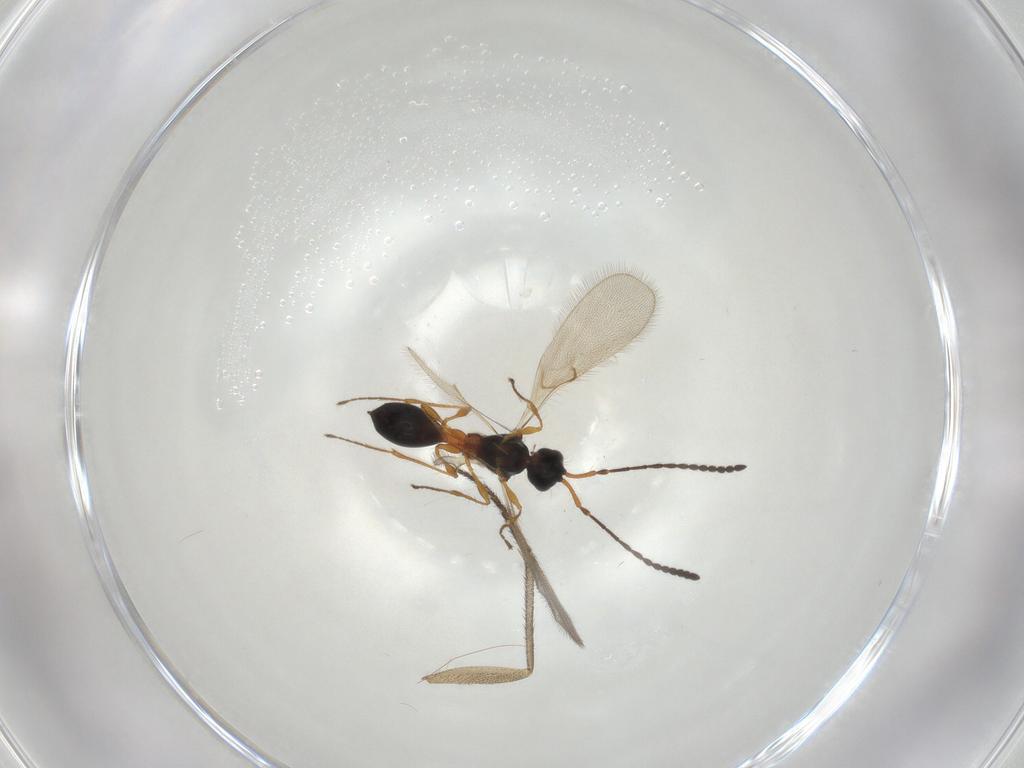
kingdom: Animalia
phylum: Arthropoda
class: Insecta
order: Hymenoptera
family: Diapriidae
